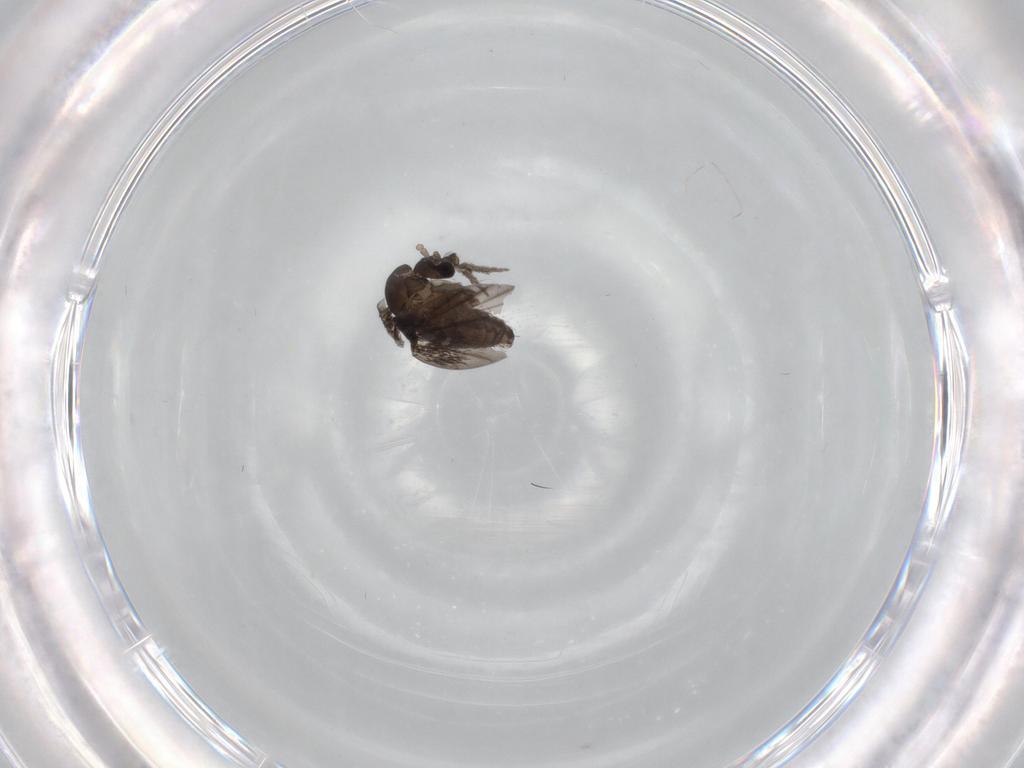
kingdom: Animalia
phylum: Arthropoda
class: Insecta
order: Diptera
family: Psychodidae
